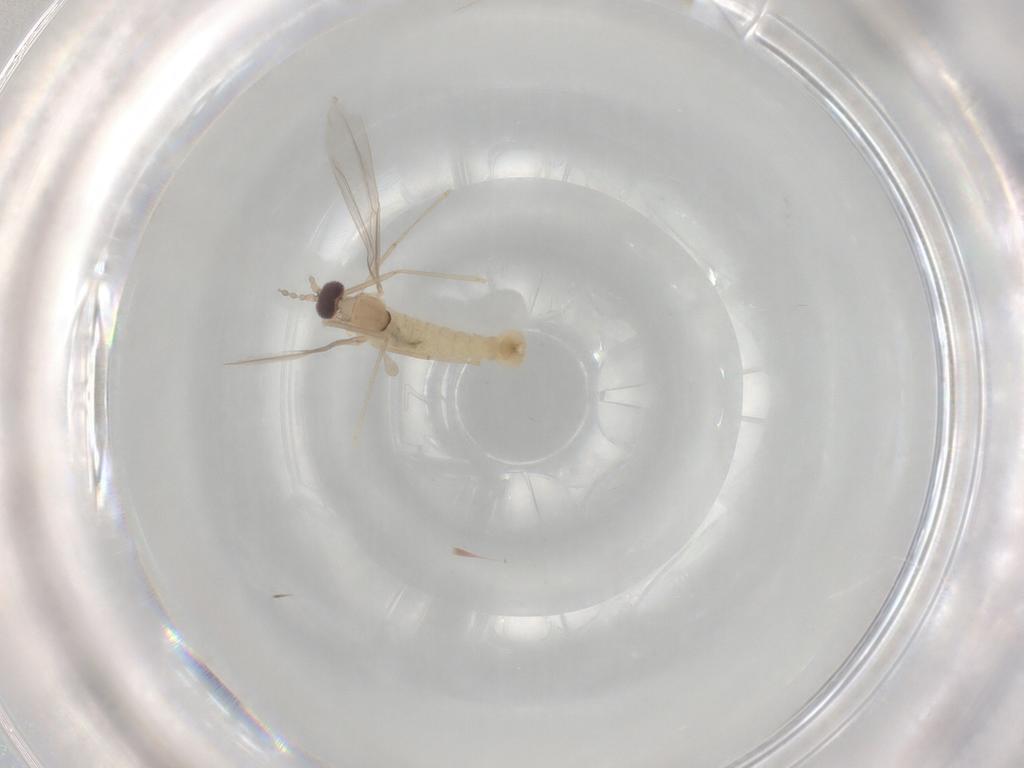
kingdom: Animalia
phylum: Arthropoda
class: Insecta
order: Diptera
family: Cecidomyiidae
